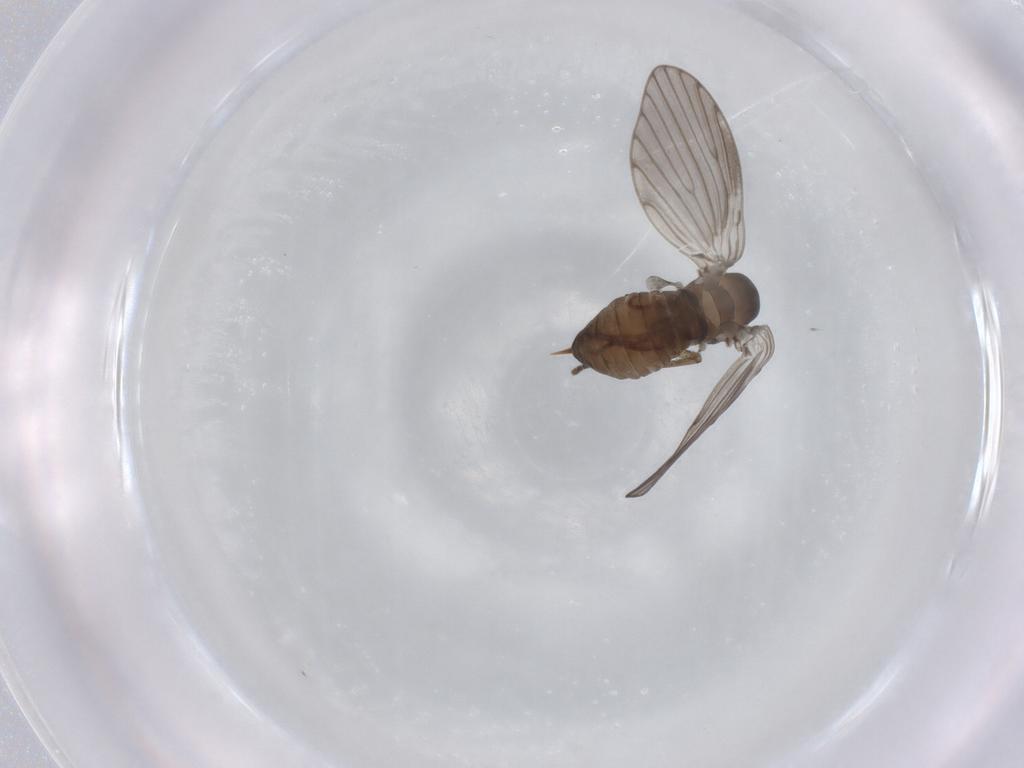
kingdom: Animalia
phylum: Arthropoda
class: Insecta
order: Diptera
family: Psychodidae
